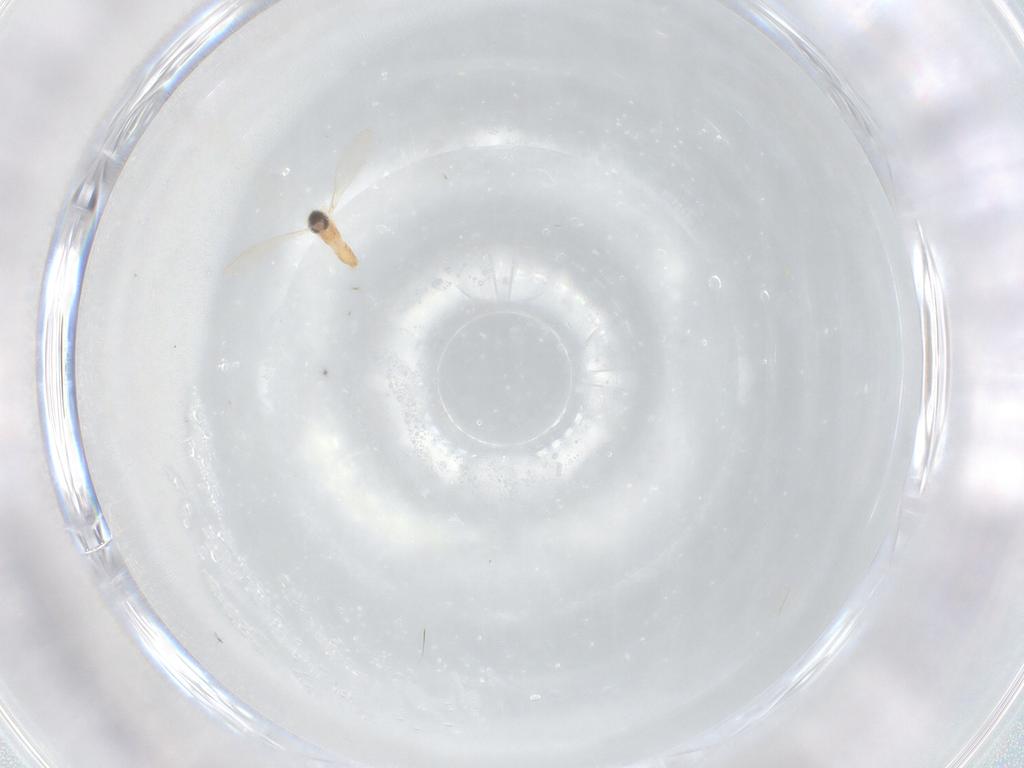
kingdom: Animalia
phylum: Arthropoda
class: Insecta
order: Diptera
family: Cecidomyiidae
